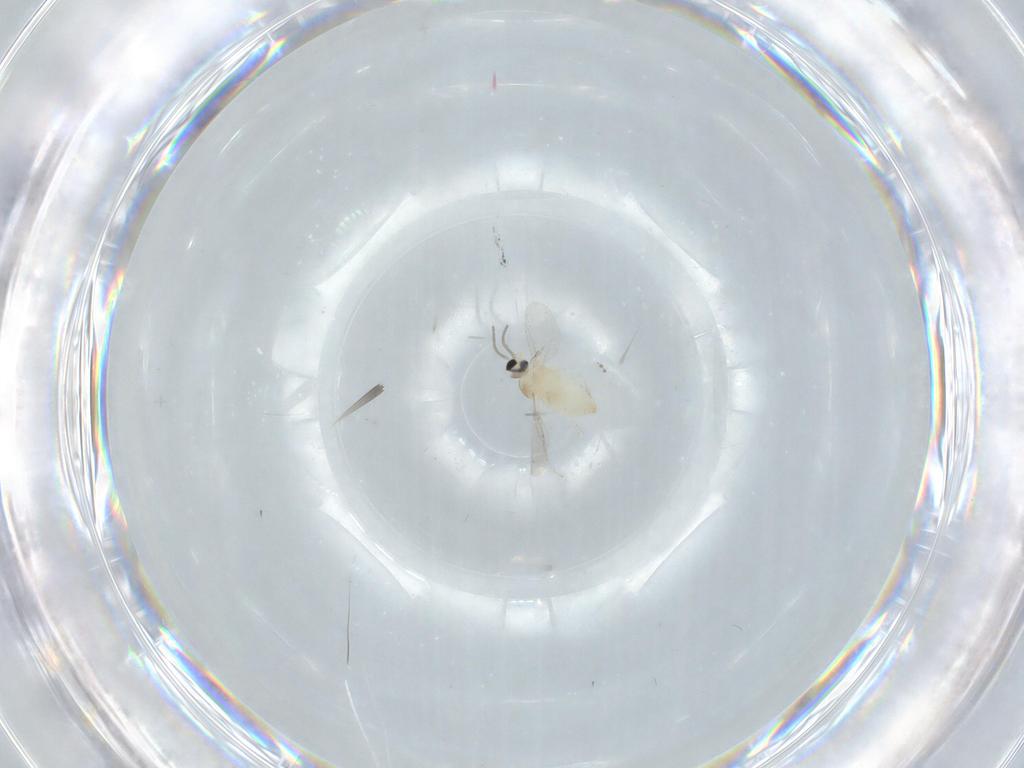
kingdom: Animalia
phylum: Arthropoda
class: Insecta
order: Diptera
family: Cecidomyiidae
